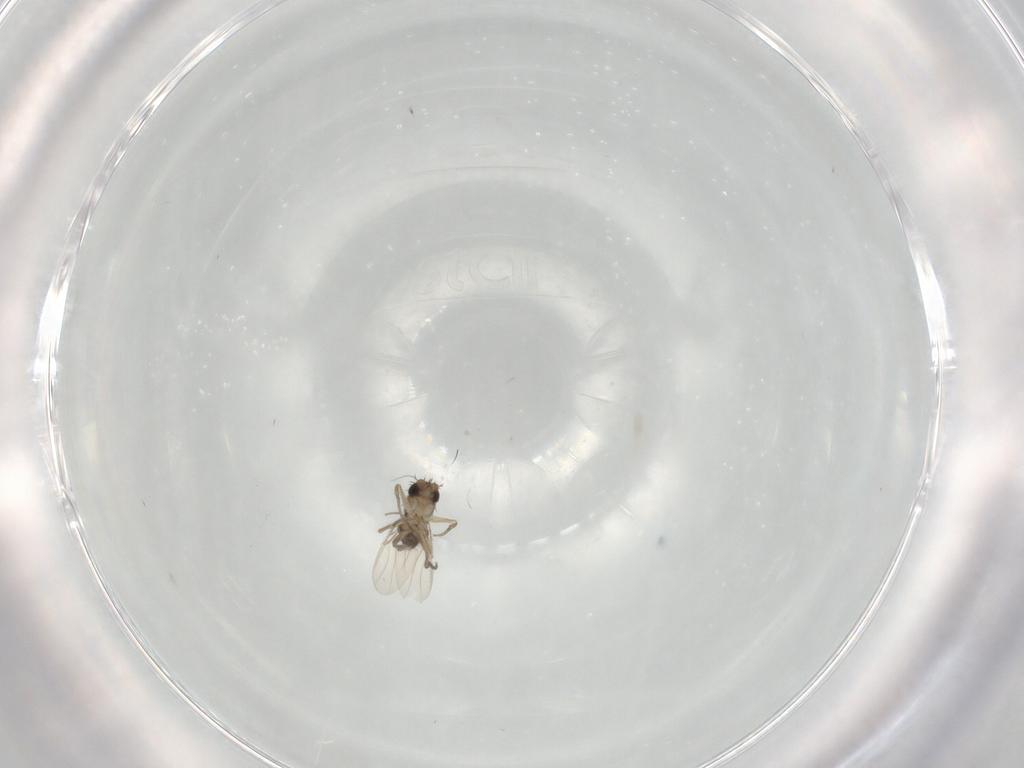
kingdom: Animalia
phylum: Arthropoda
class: Insecta
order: Diptera
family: Phoridae
